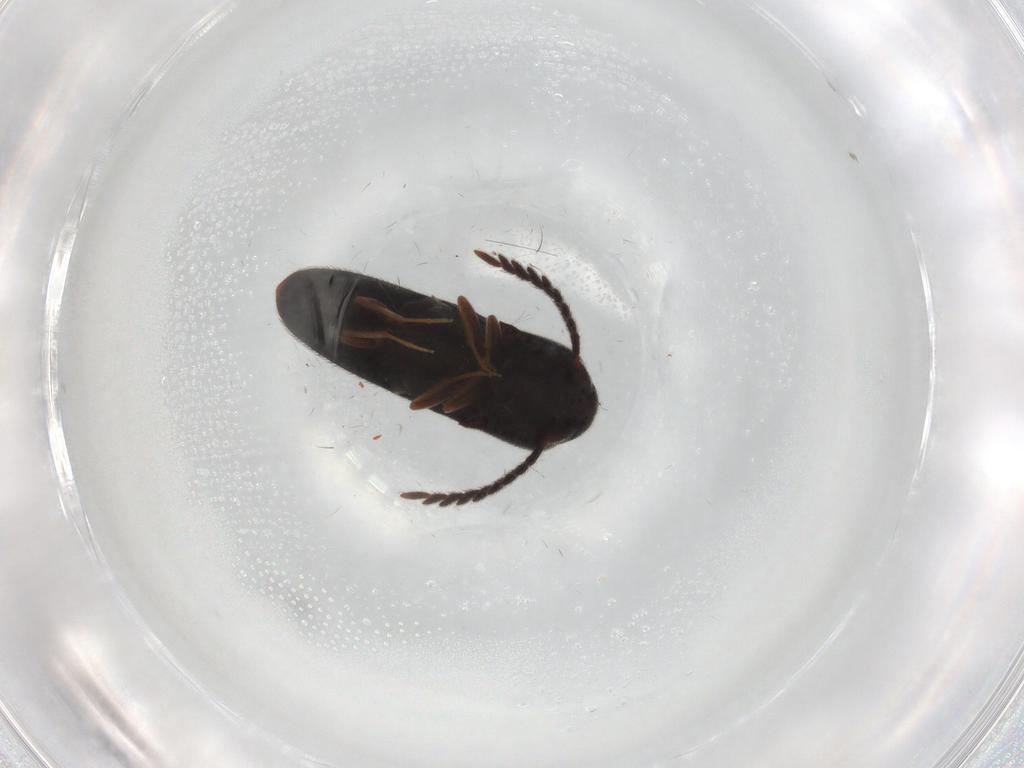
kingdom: Animalia
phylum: Arthropoda
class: Insecta
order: Coleoptera
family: Eucnemidae
